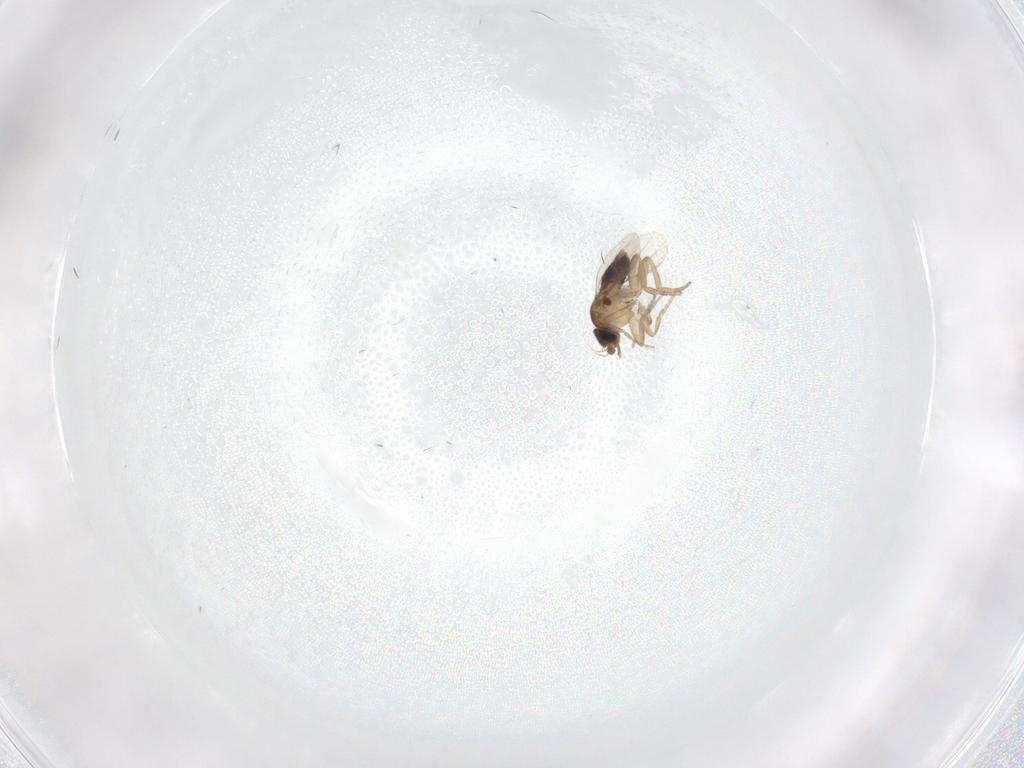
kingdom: Animalia
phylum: Arthropoda
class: Insecta
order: Diptera
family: Phoridae
